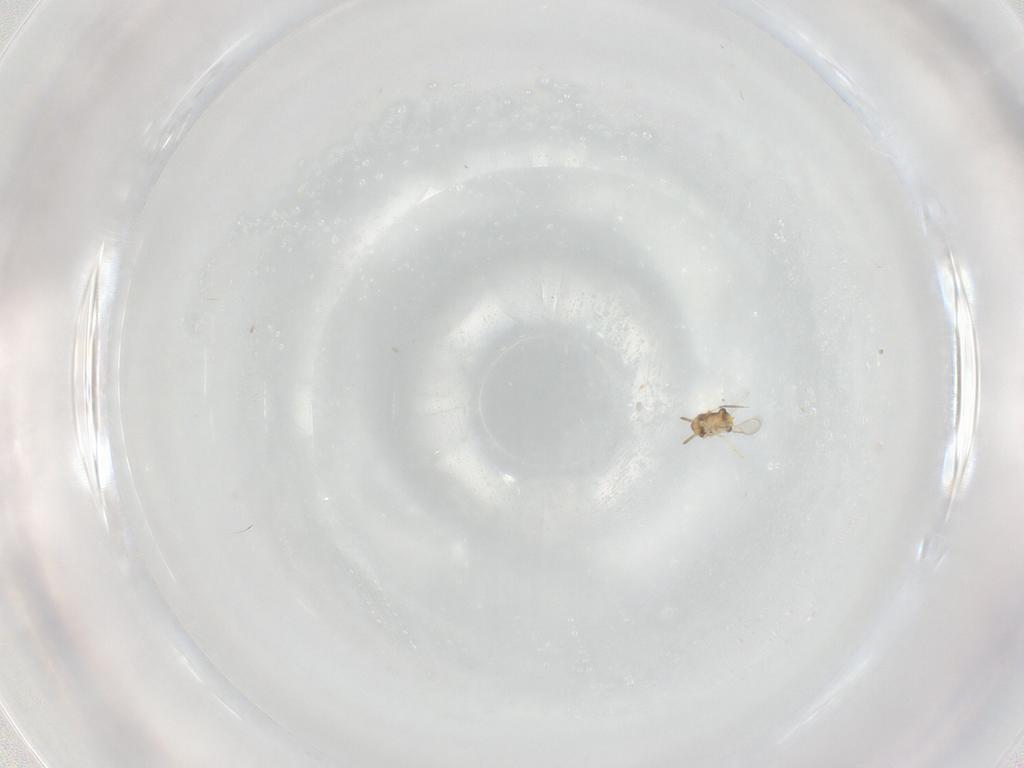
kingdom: Animalia
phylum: Arthropoda
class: Insecta
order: Hymenoptera
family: Aphelinidae
